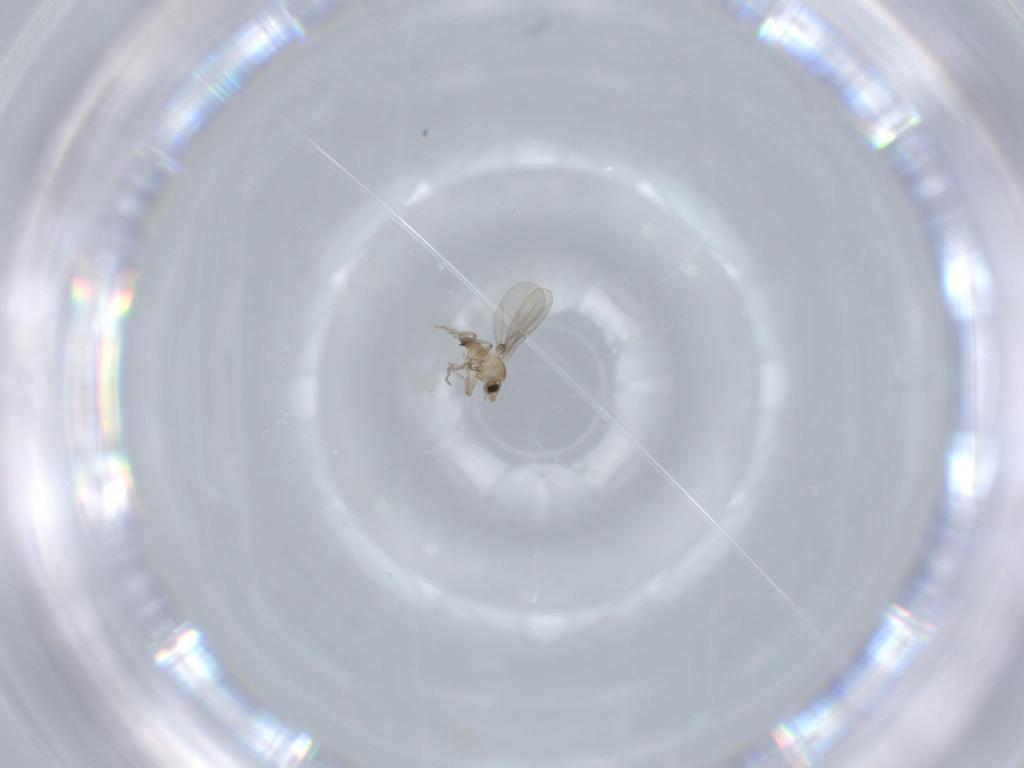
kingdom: Animalia
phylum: Arthropoda
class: Insecta
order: Diptera
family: Phoridae
